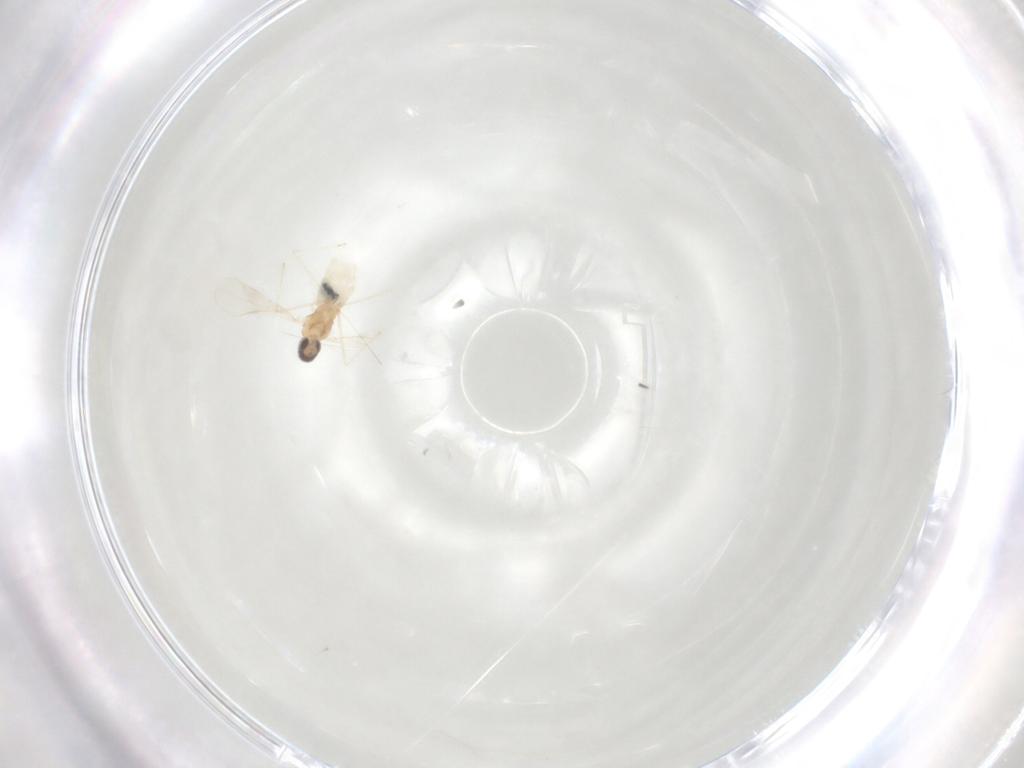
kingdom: Animalia
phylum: Arthropoda
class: Insecta
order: Diptera
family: Cecidomyiidae
